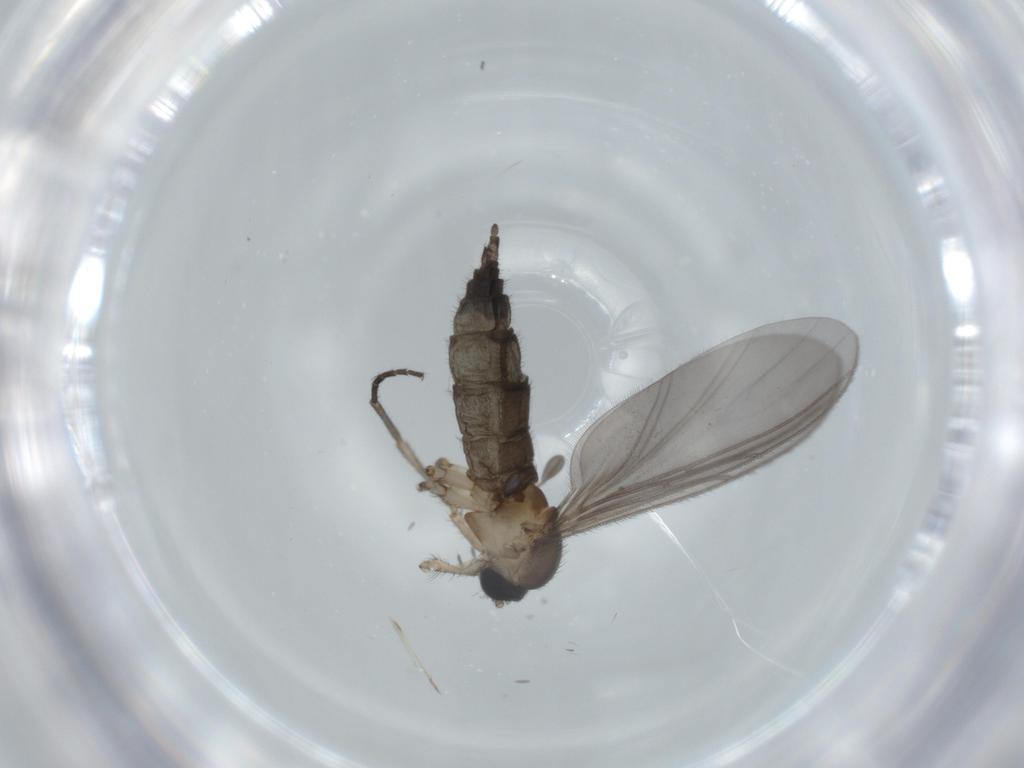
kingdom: Animalia
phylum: Arthropoda
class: Insecta
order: Diptera
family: Sciaridae
